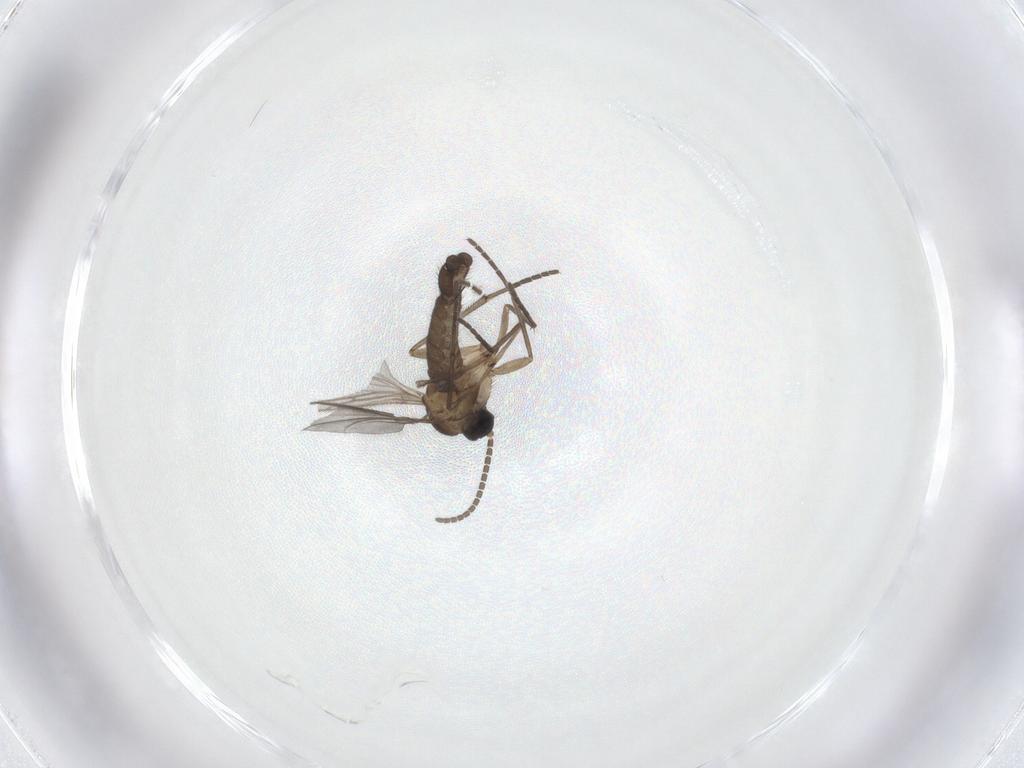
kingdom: Animalia
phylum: Arthropoda
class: Insecta
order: Diptera
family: Sciaridae
